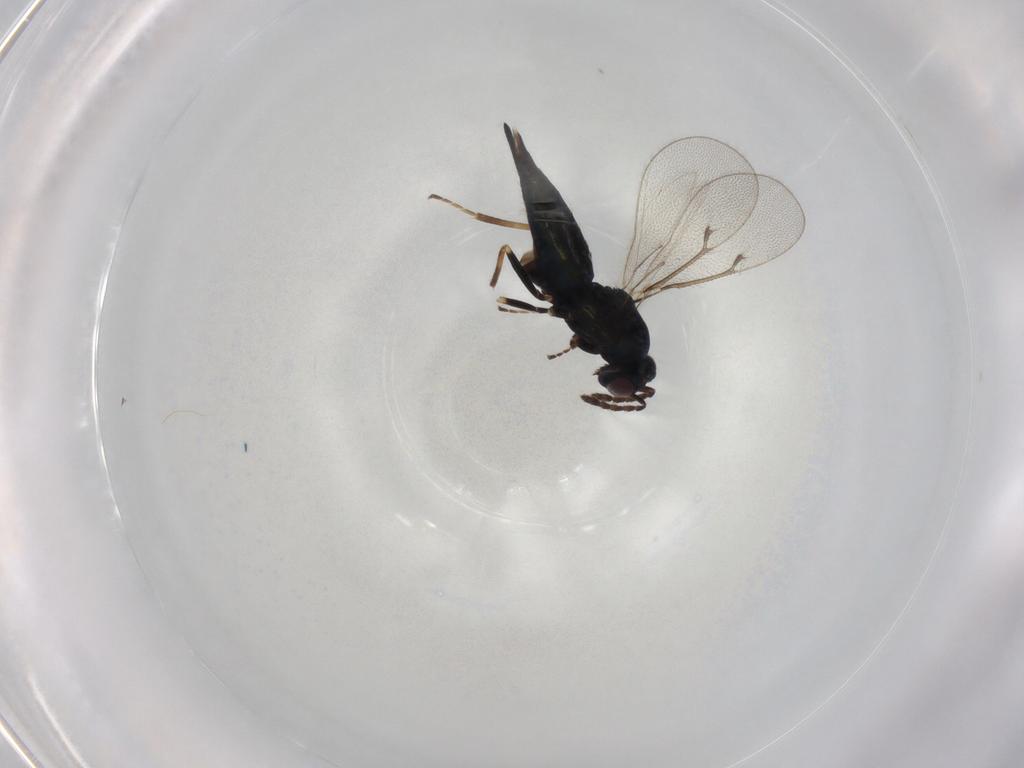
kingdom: Animalia
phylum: Arthropoda
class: Insecta
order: Hymenoptera
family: Eulophidae
